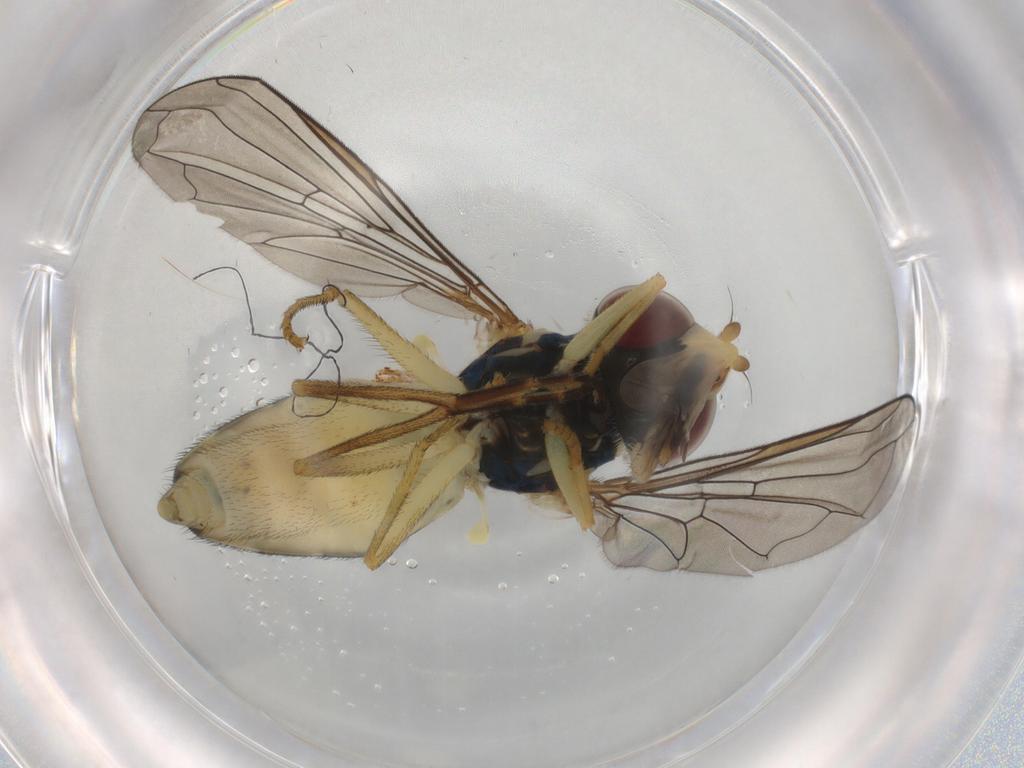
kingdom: Animalia
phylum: Arthropoda
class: Insecta
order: Diptera
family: Syrphidae
